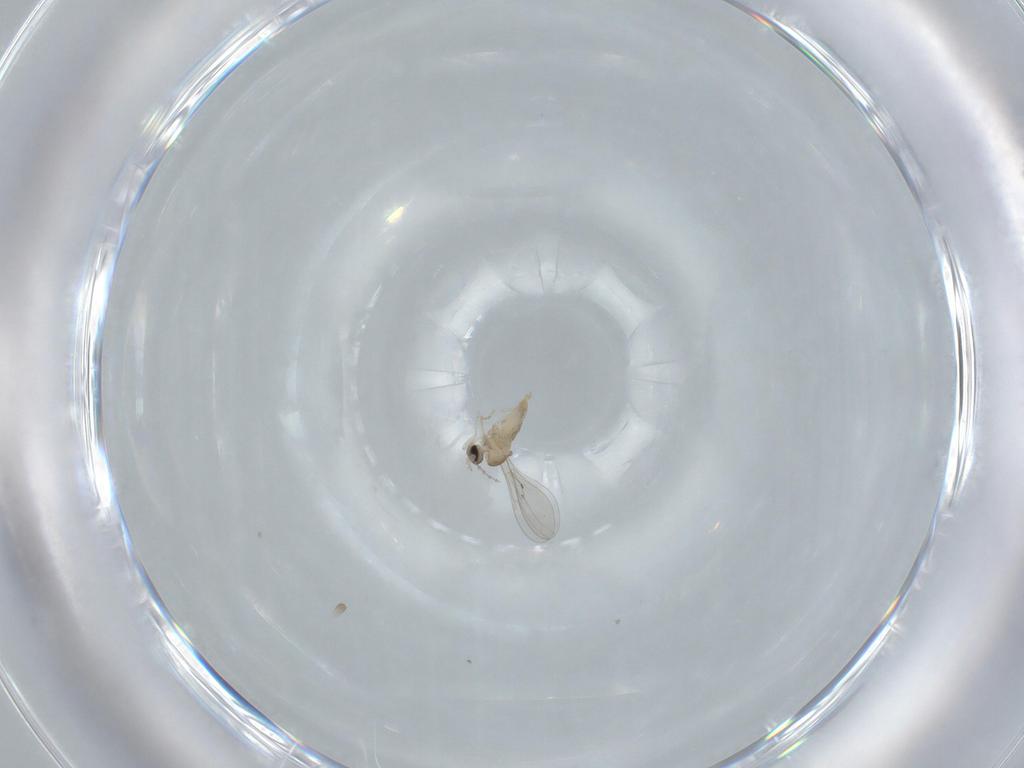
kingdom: Animalia
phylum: Arthropoda
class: Insecta
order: Diptera
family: Cecidomyiidae
